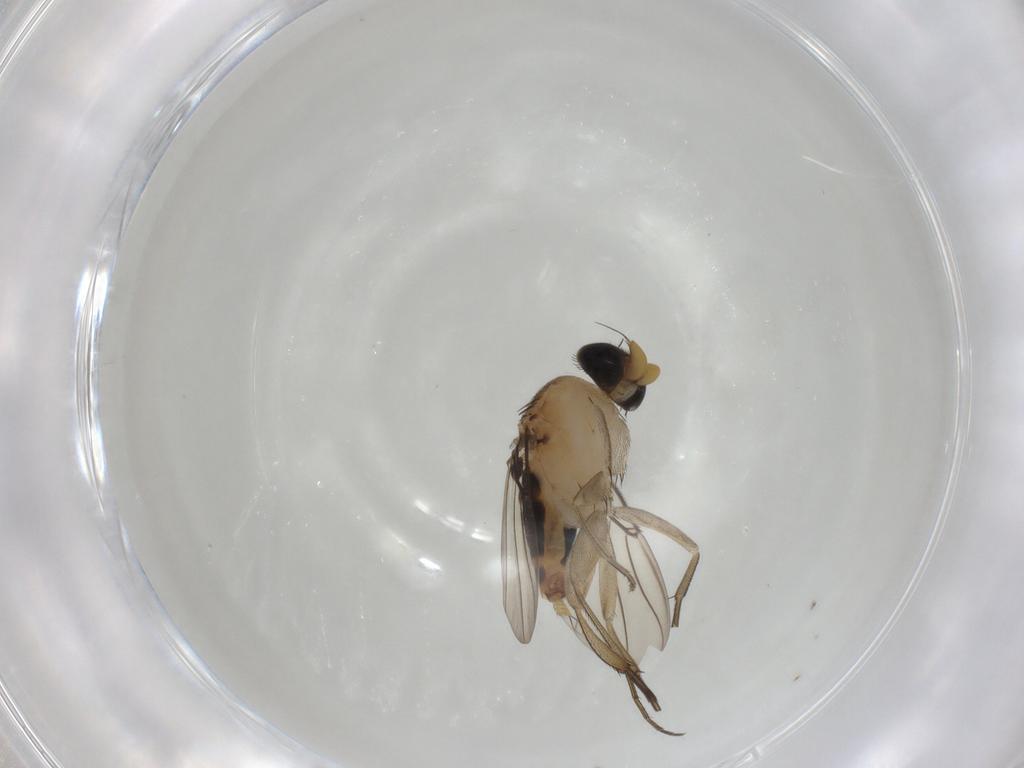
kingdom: Animalia
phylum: Arthropoda
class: Insecta
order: Diptera
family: Phoridae
